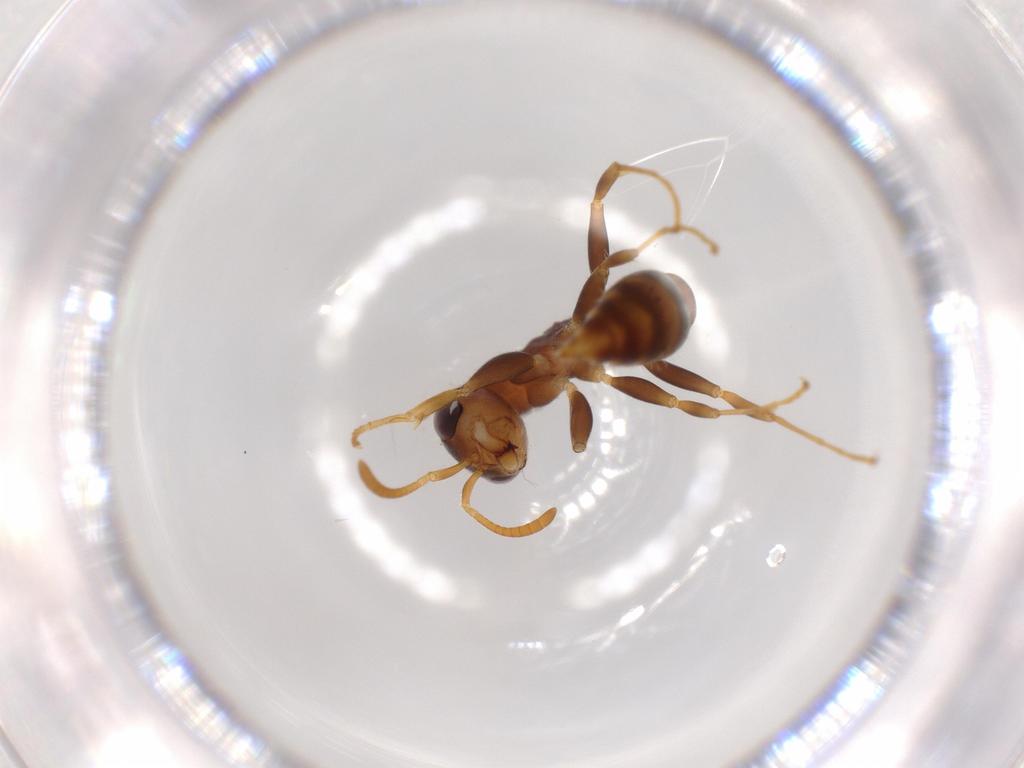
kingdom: Animalia
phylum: Arthropoda
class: Insecta
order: Hymenoptera
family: Formicidae
